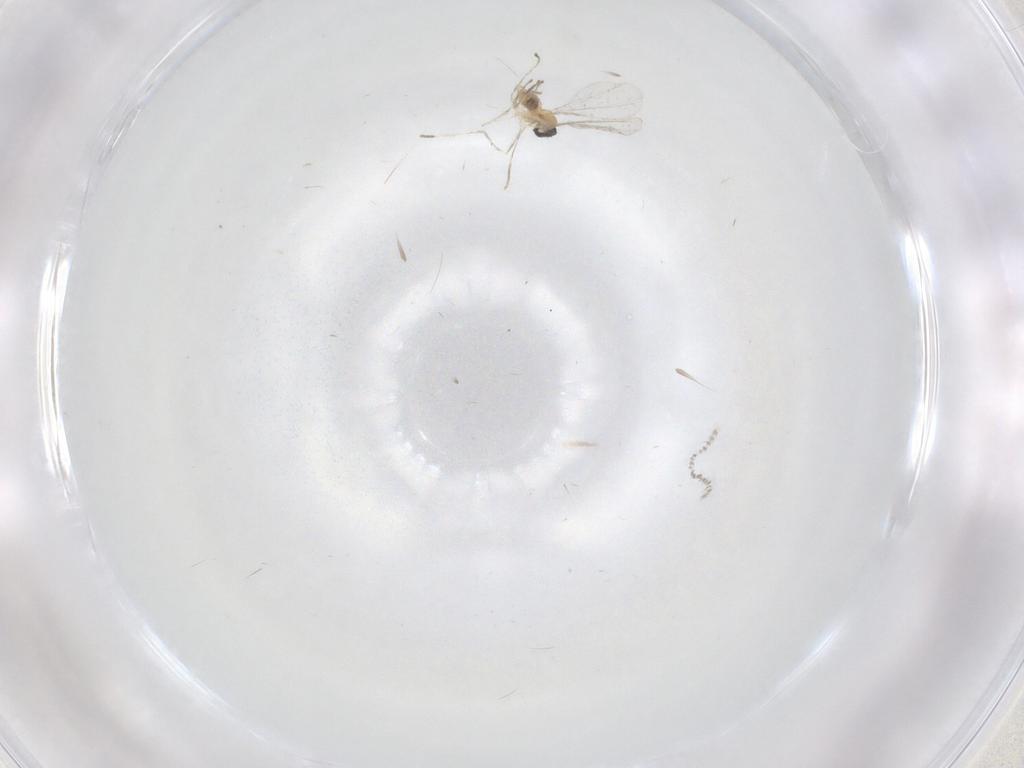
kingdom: Animalia
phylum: Arthropoda
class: Insecta
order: Diptera
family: Cecidomyiidae
